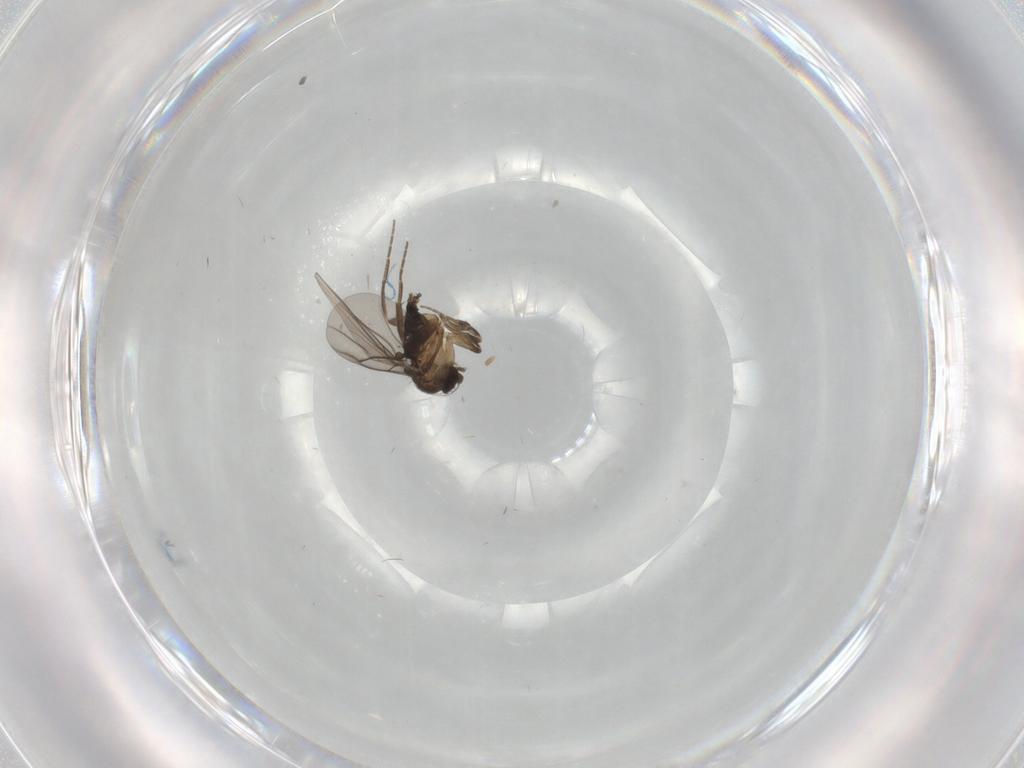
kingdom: Animalia
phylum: Arthropoda
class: Insecta
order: Diptera
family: Phoridae
